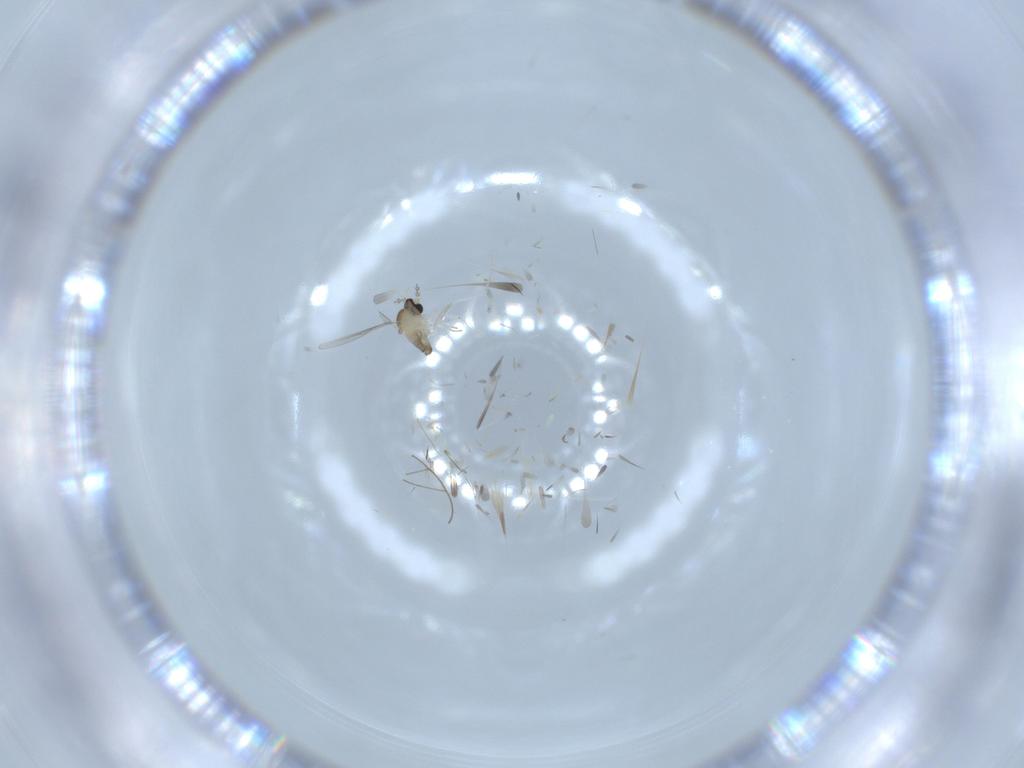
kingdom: Animalia
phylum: Arthropoda
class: Insecta
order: Diptera
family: Cecidomyiidae
